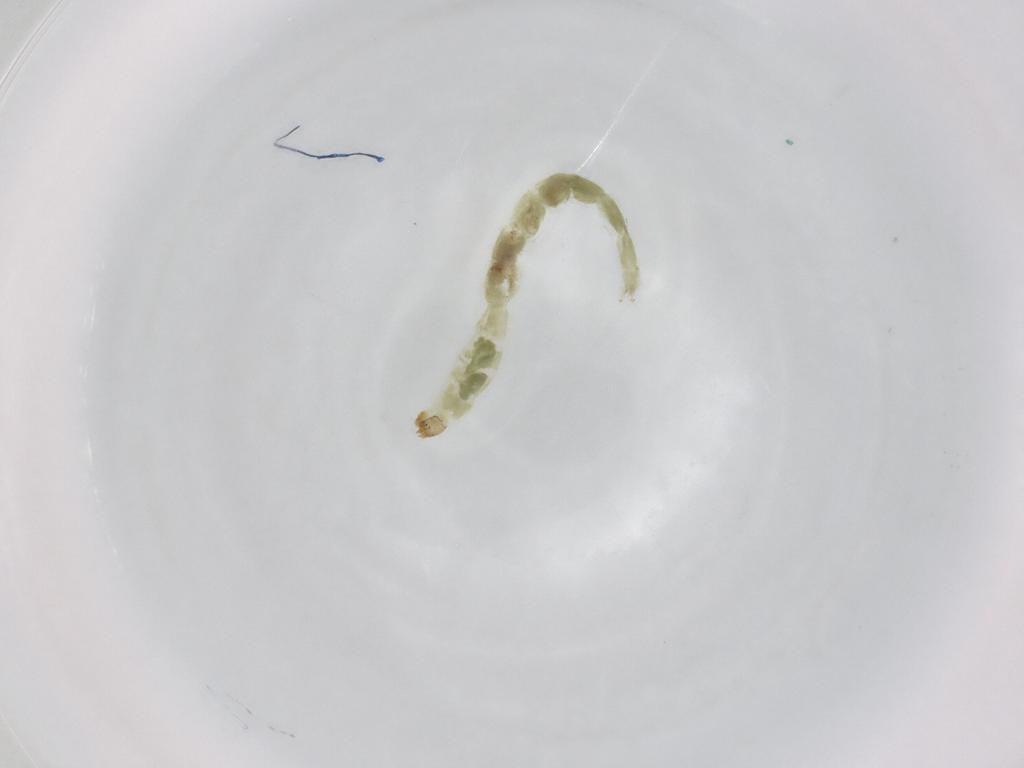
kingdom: Animalia
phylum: Arthropoda
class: Insecta
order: Diptera
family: Chironomidae
